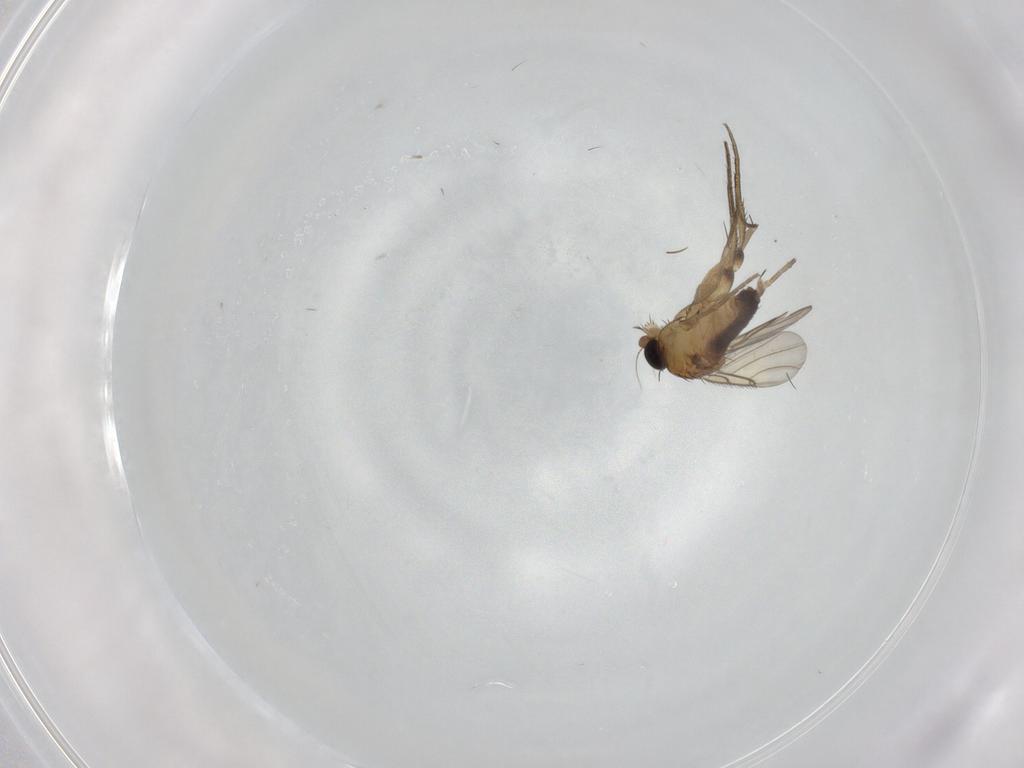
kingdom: Animalia
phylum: Arthropoda
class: Insecta
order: Diptera
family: Phoridae
